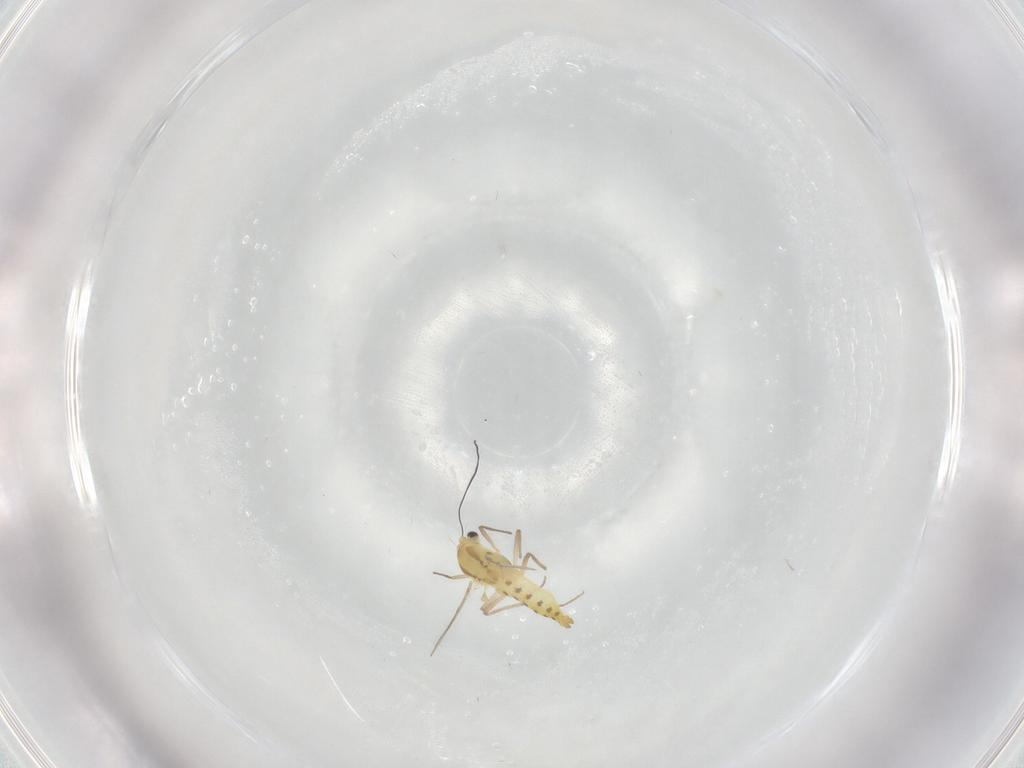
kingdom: Animalia
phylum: Arthropoda
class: Insecta
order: Diptera
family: Chironomidae
